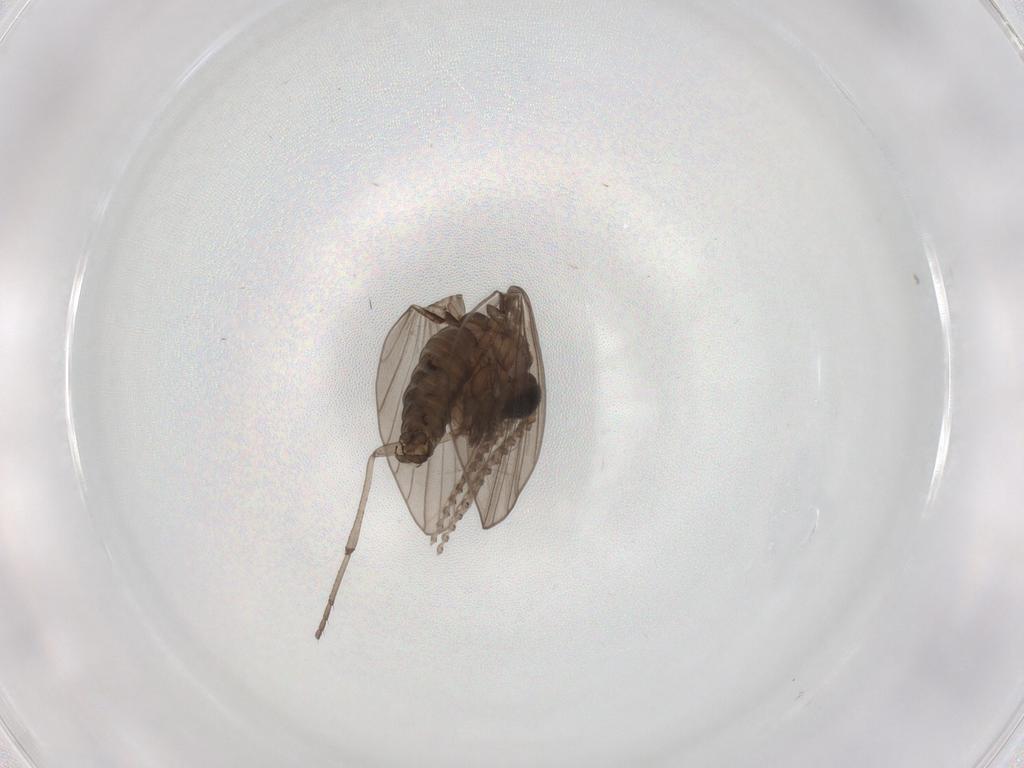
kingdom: Animalia
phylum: Arthropoda
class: Insecta
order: Diptera
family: Psychodidae
